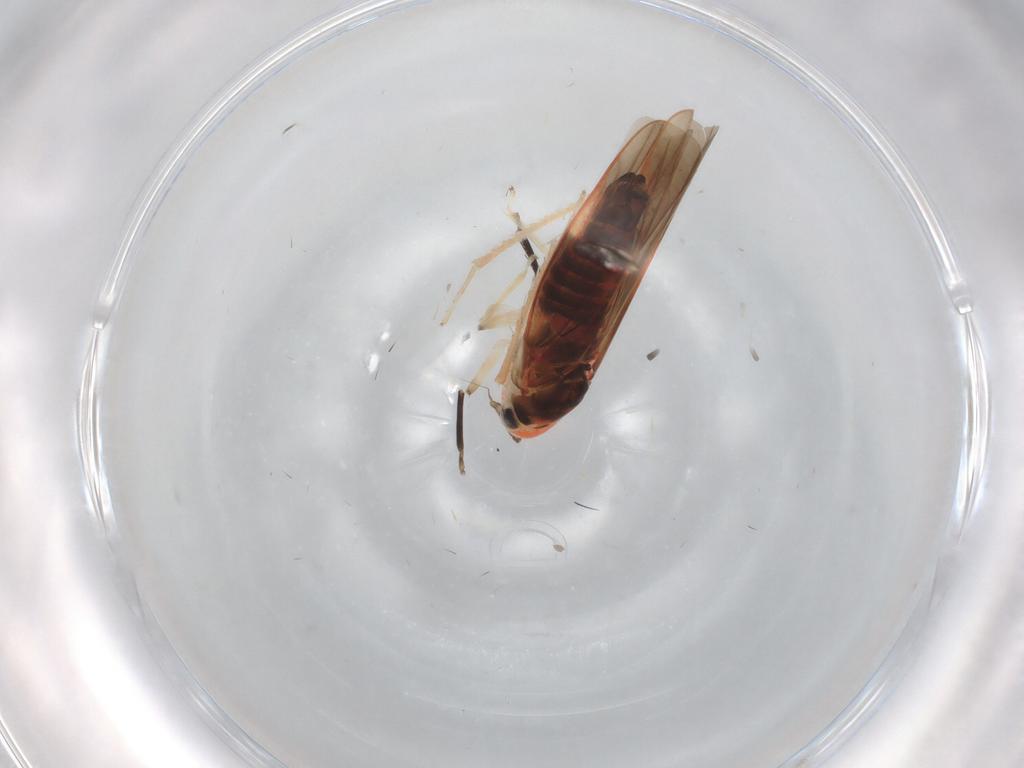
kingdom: Animalia
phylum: Arthropoda
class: Insecta
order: Hemiptera
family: Cicadellidae
